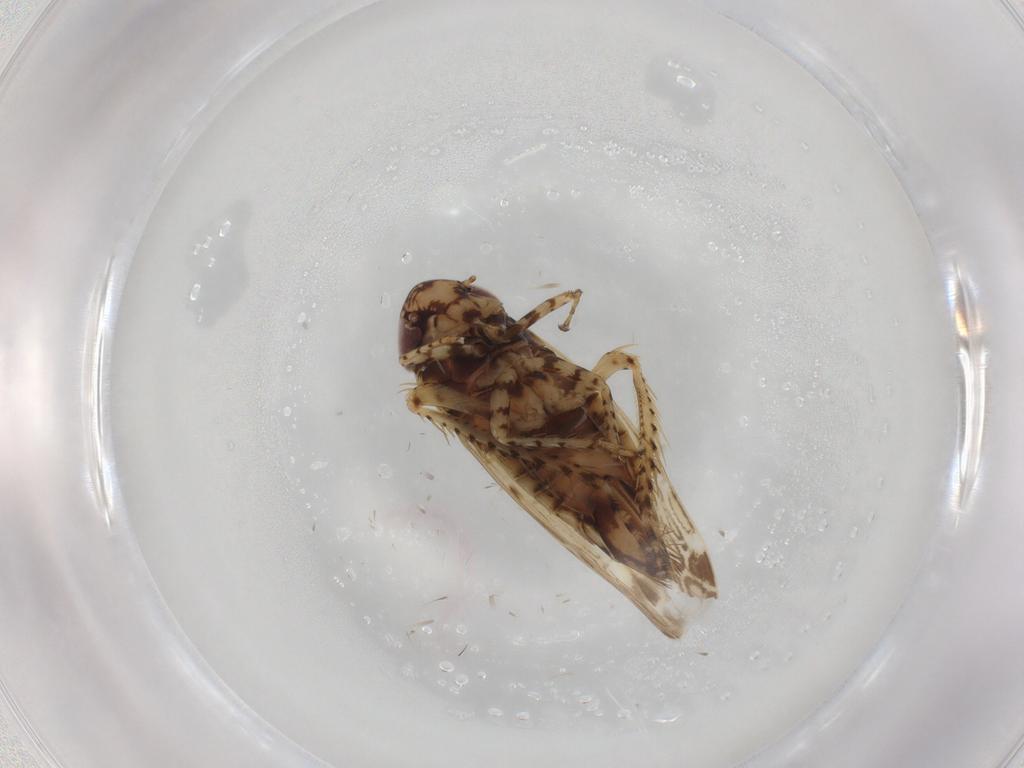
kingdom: Animalia
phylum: Arthropoda
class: Insecta
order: Hemiptera
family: Cicadellidae
